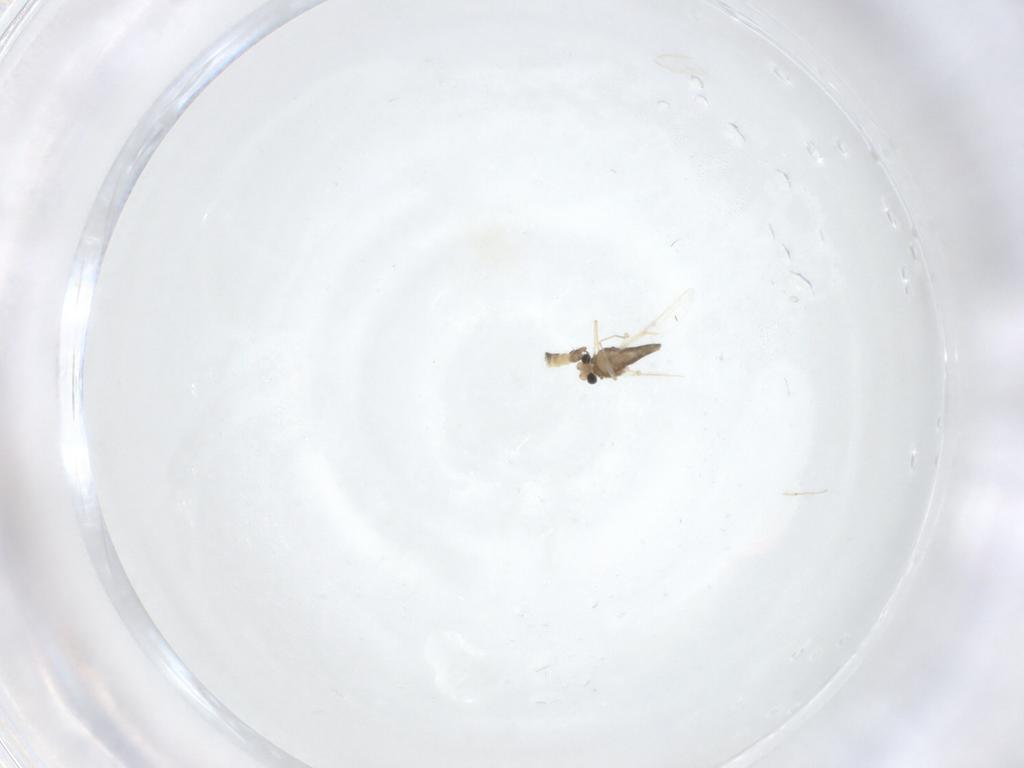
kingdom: Animalia
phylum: Arthropoda
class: Insecta
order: Diptera
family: Chironomidae
